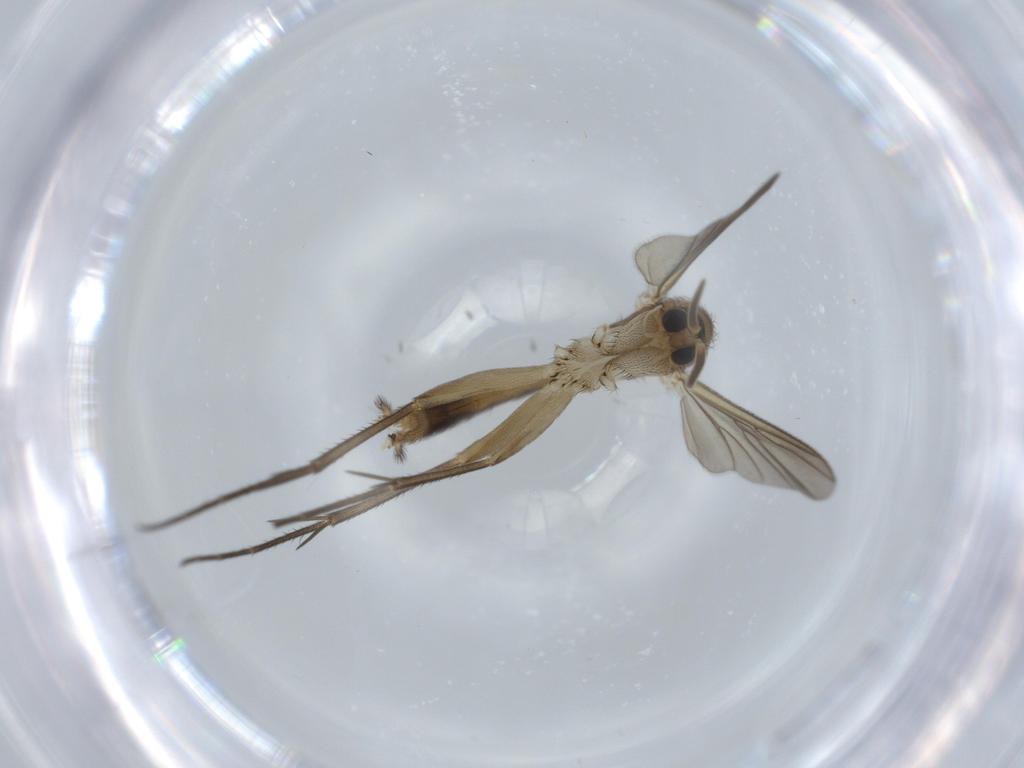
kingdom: Animalia
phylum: Arthropoda
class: Insecta
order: Diptera
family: Mycetophilidae
